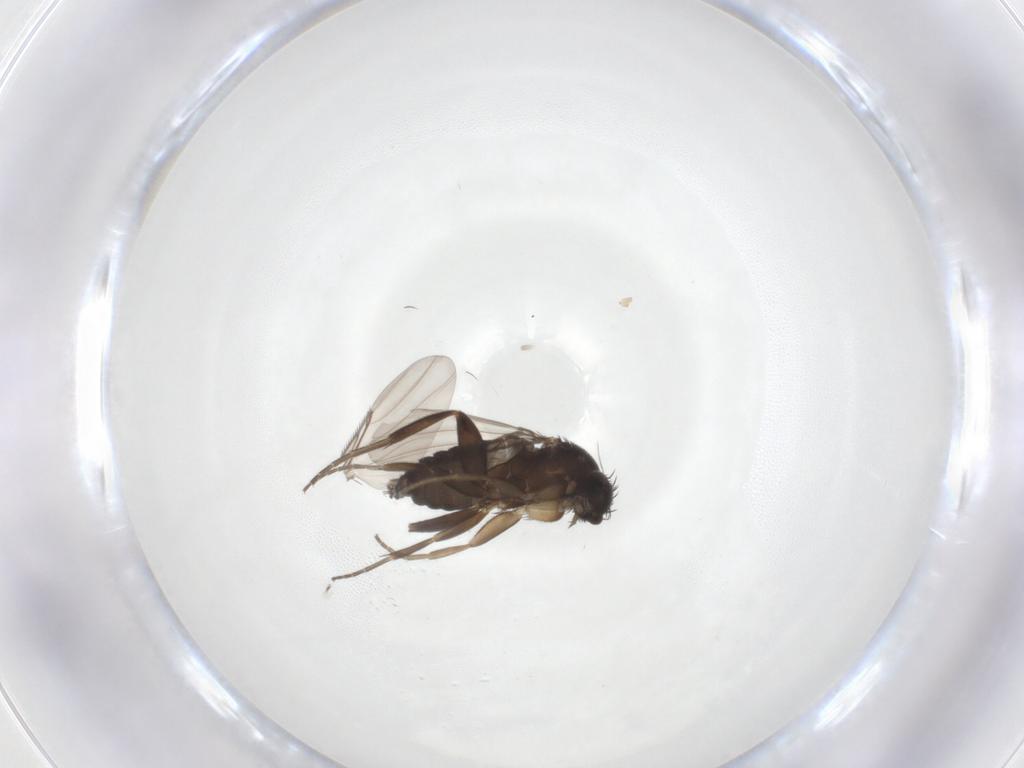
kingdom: Animalia
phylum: Arthropoda
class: Insecta
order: Diptera
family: Phoridae
